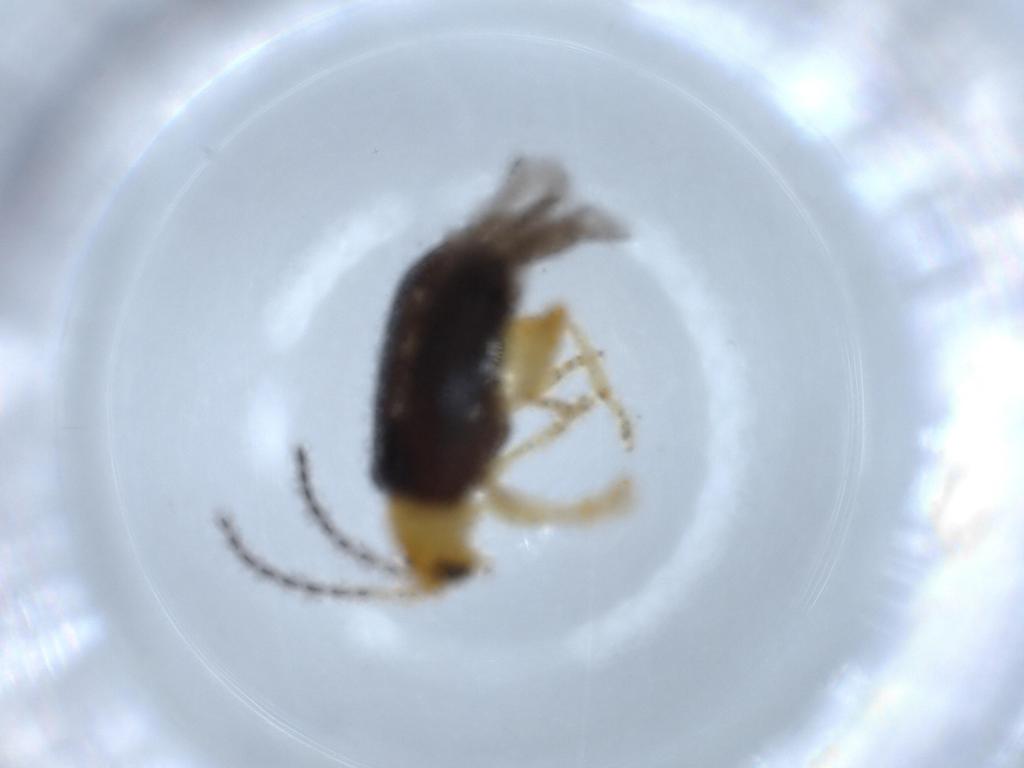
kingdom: Animalia
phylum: Arthropoda
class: Insecta
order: Coleoptera
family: Chrysomelidae
